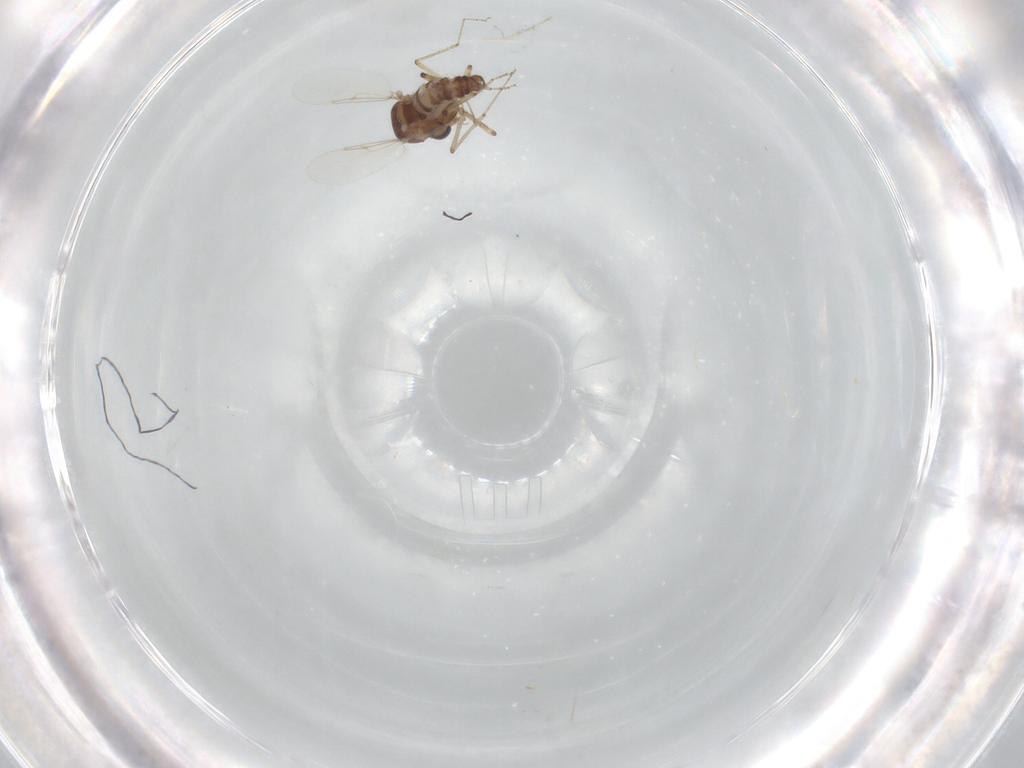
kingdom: Animalia
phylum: Arthropoda
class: Insecta
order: Diptera
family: Ceratopogonidae
